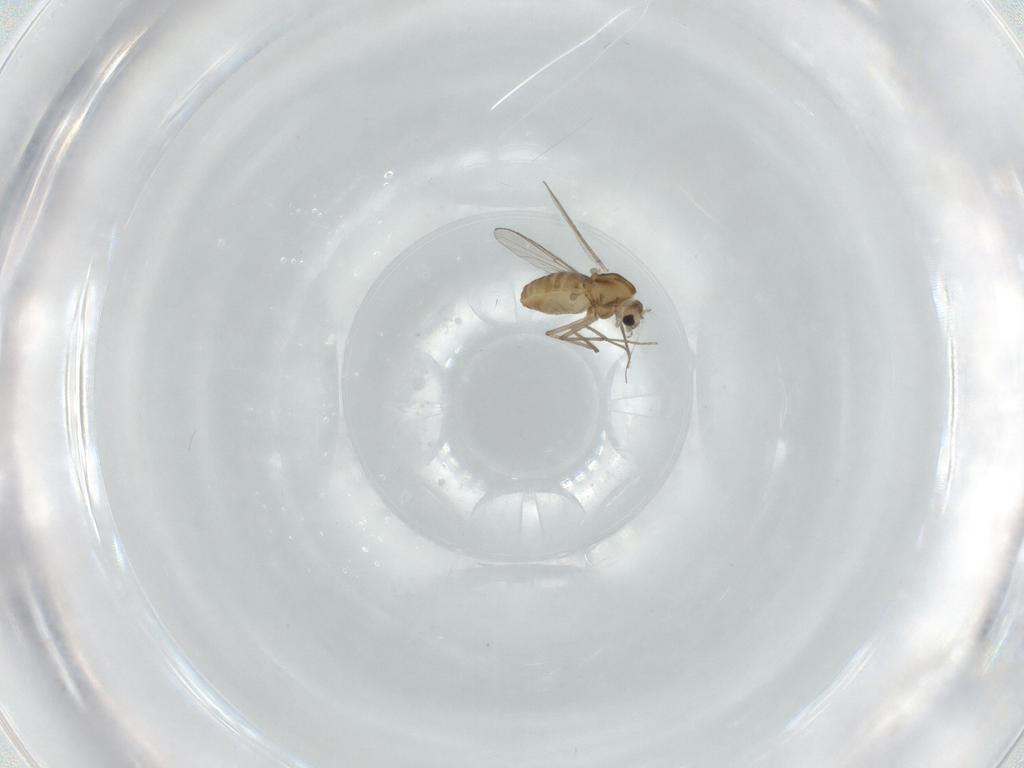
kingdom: Animalia
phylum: Arthropoda
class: Insecta
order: Diptera
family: Chironomidae
